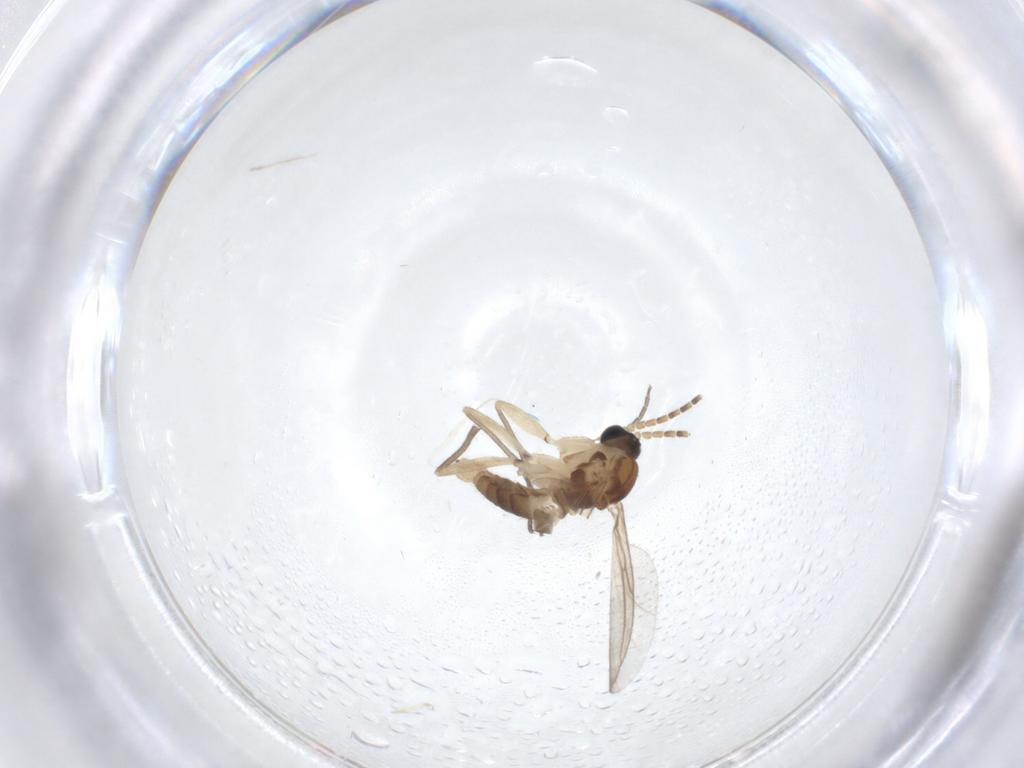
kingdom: Animalia
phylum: Arthropoda
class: Insecta
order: Diptera
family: Sciaridae
